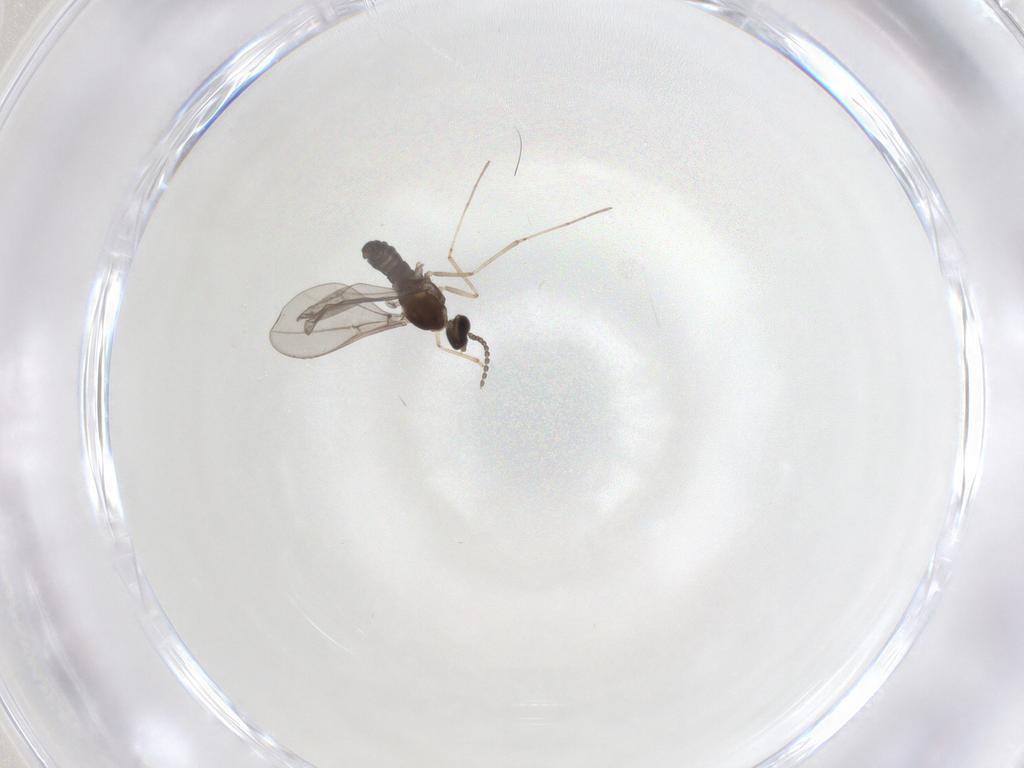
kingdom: Animalia
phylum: Arthropoda
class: Insecta
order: Diptera
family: Cecidomyiidae
